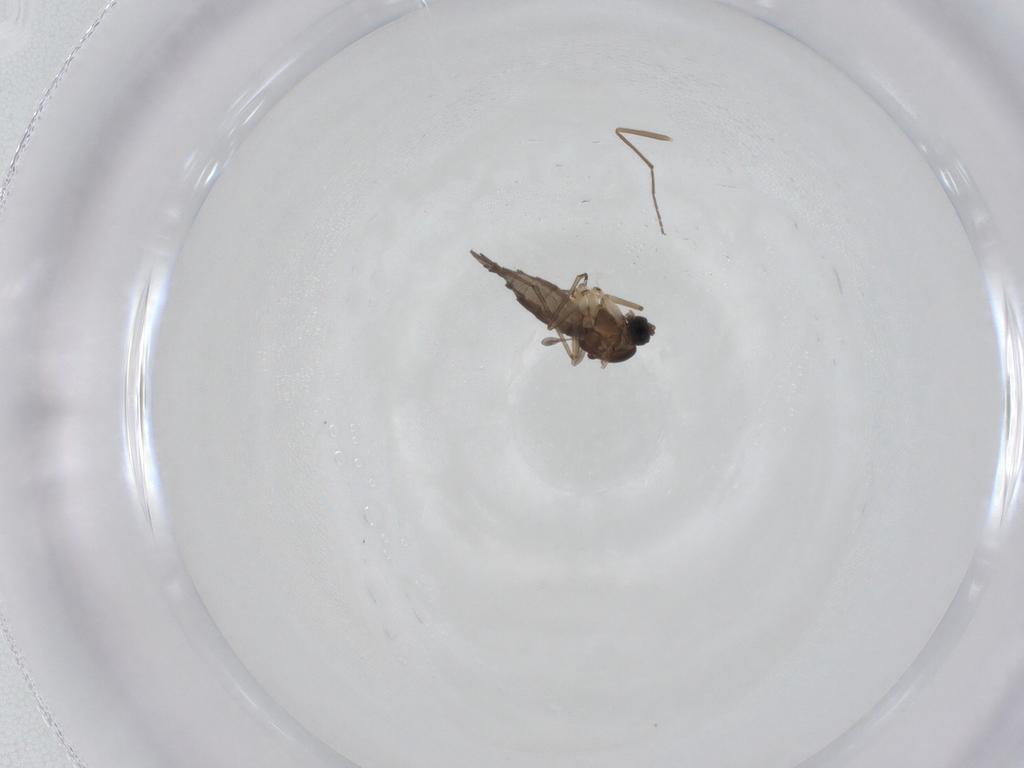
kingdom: Animalia
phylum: Arthropoda
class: Insecta
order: Diptera
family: Sciaridae
